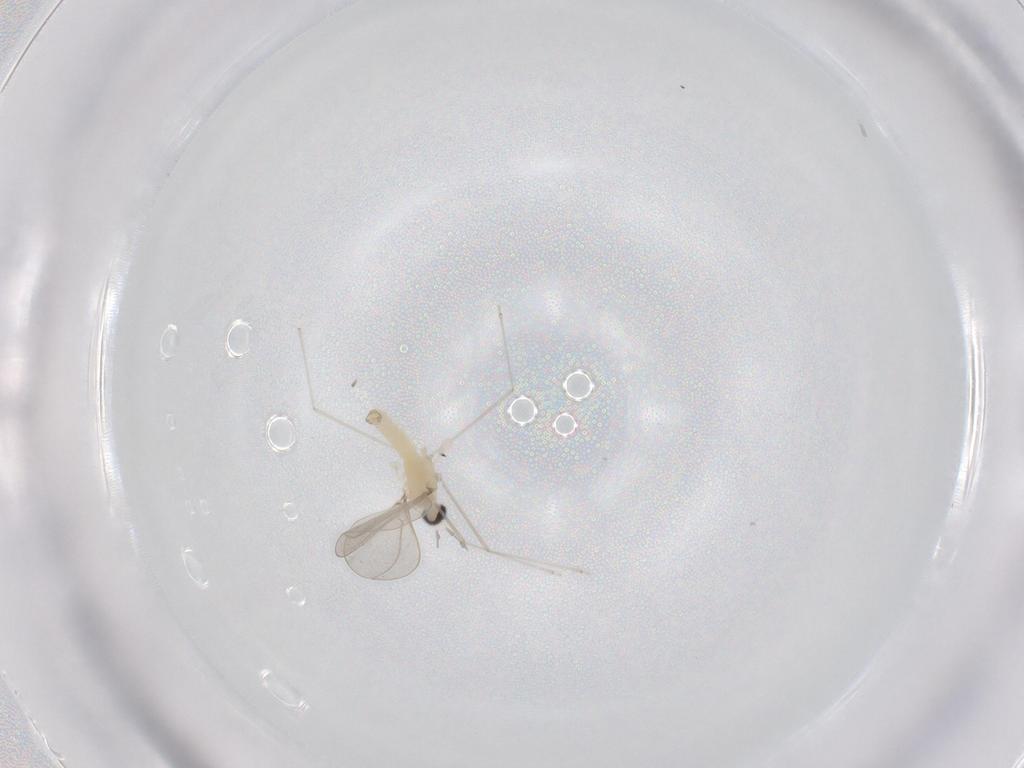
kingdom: Animalia
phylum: Arthropoda
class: Insecta
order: Diptera
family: Cecidomyiidae
